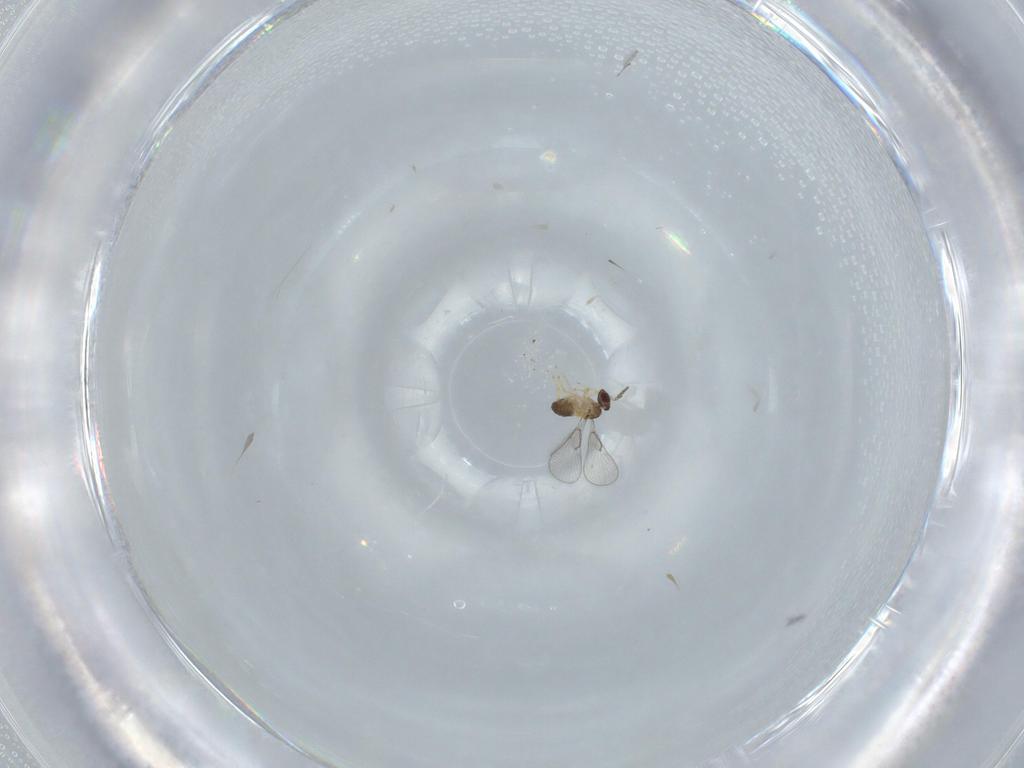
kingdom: Animalia
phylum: Arthropoda
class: Insecta
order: Hymenoptera
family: Trichogrammatidae
